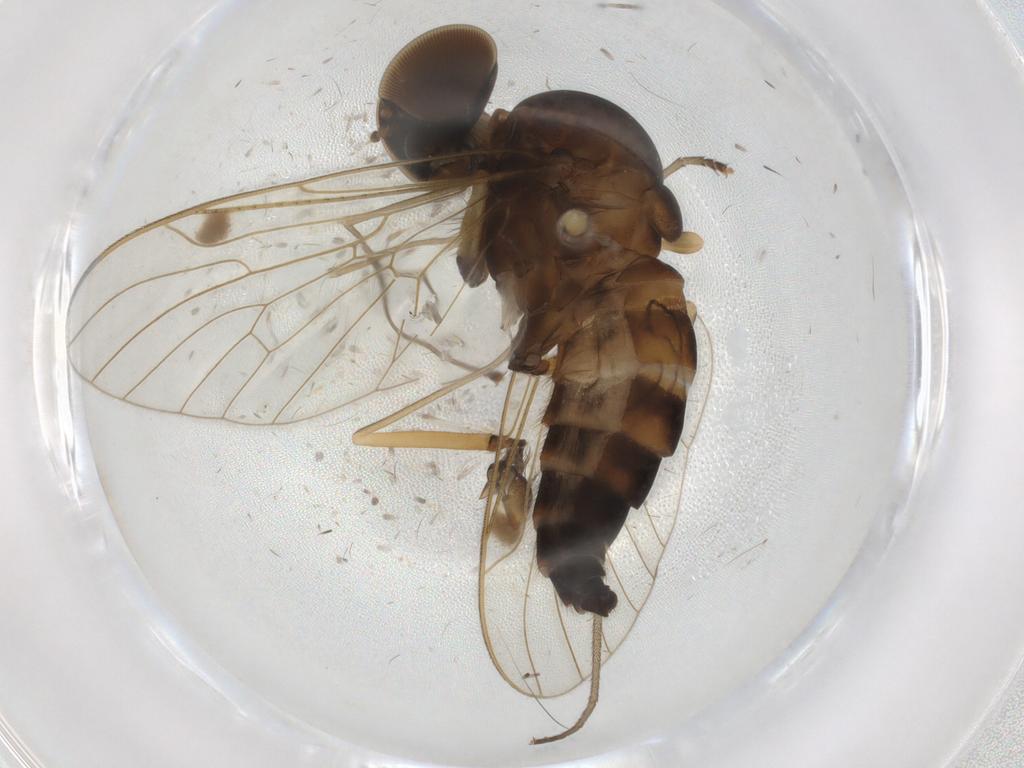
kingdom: Animalia
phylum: Arthropoda
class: Insecta
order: Diptera
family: Ceratopogonidae
